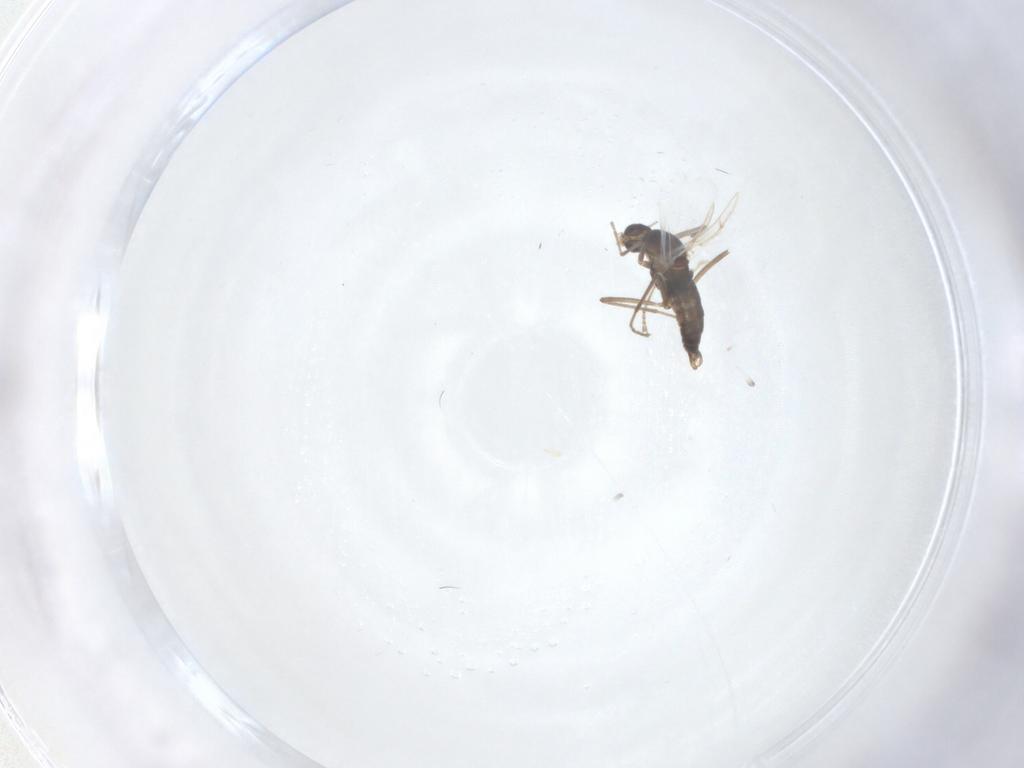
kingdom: Animalia
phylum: Arthropoda
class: Insecta
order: Diptera
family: Cecidomyiidae
